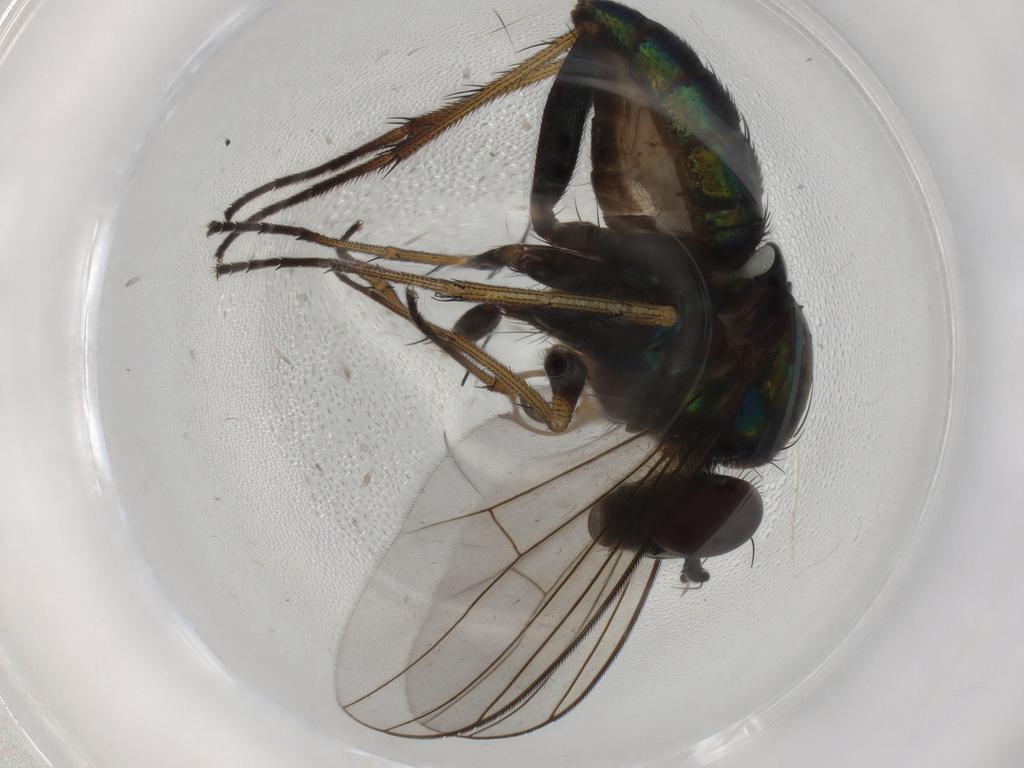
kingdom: Animalia
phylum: Arthropoda
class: Insecta
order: Diptera
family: Dolichopodidae
